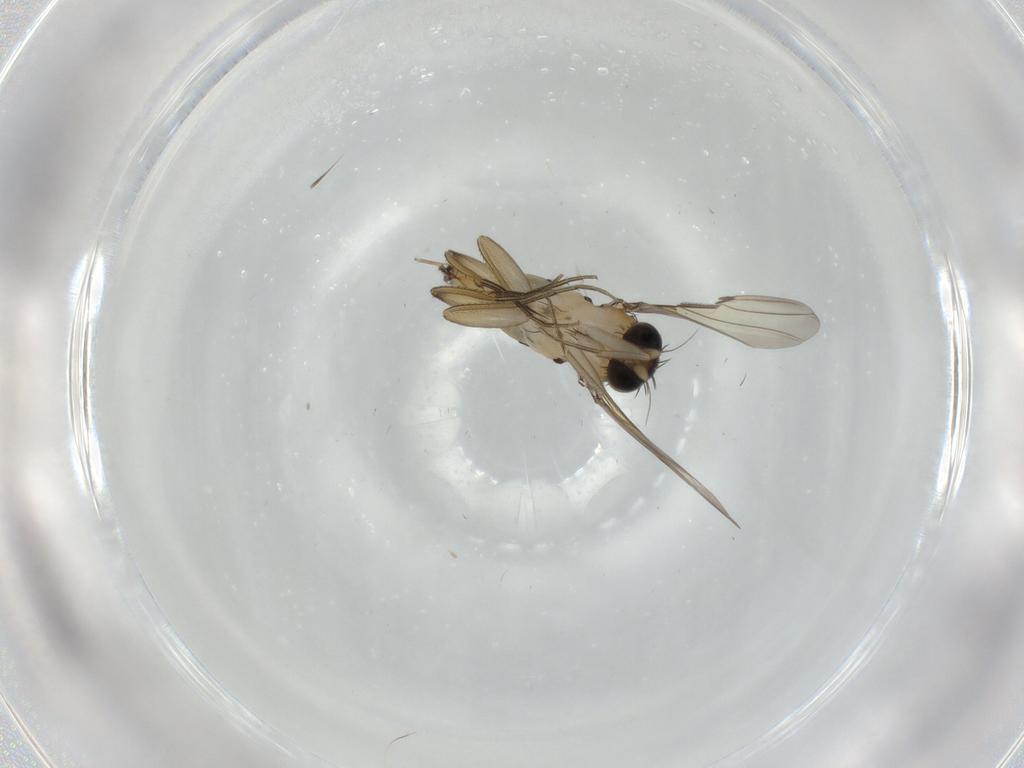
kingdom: Animalia
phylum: Arthropoda
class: Insecta
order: Diptera
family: Phoridae
